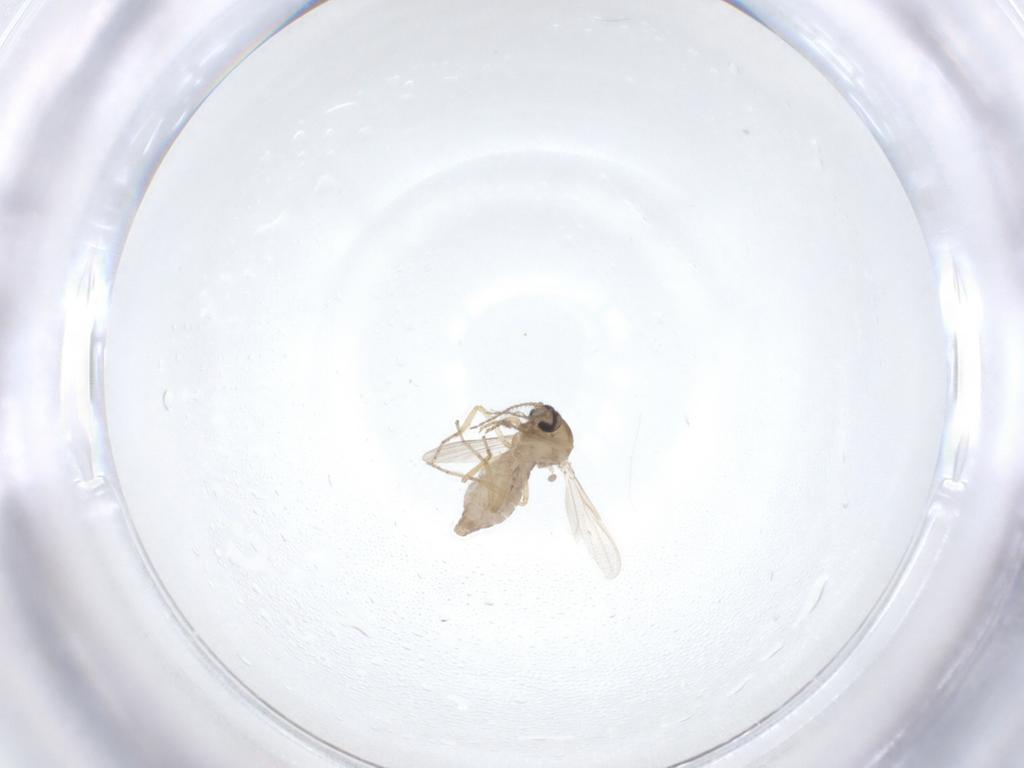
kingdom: Animalia
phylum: Arthropoda
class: Insecta
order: Diptera
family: Ceratopogonidae
